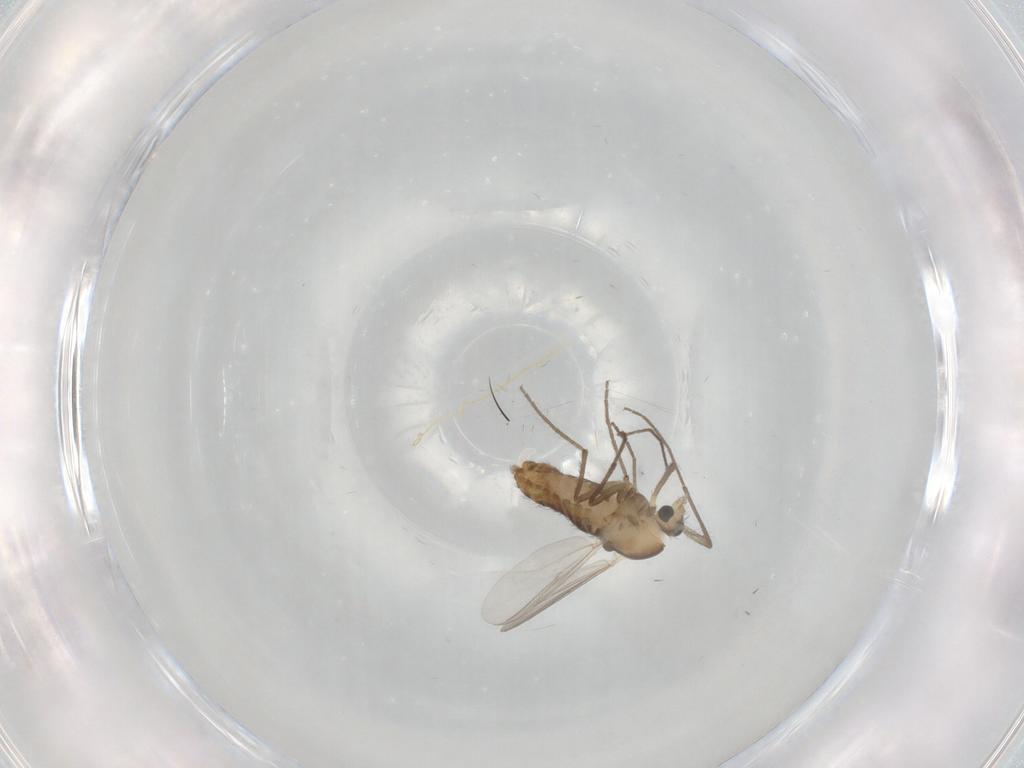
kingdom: Animalia
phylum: Arthropoda
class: Insecta
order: Diptera
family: Chironomidae
